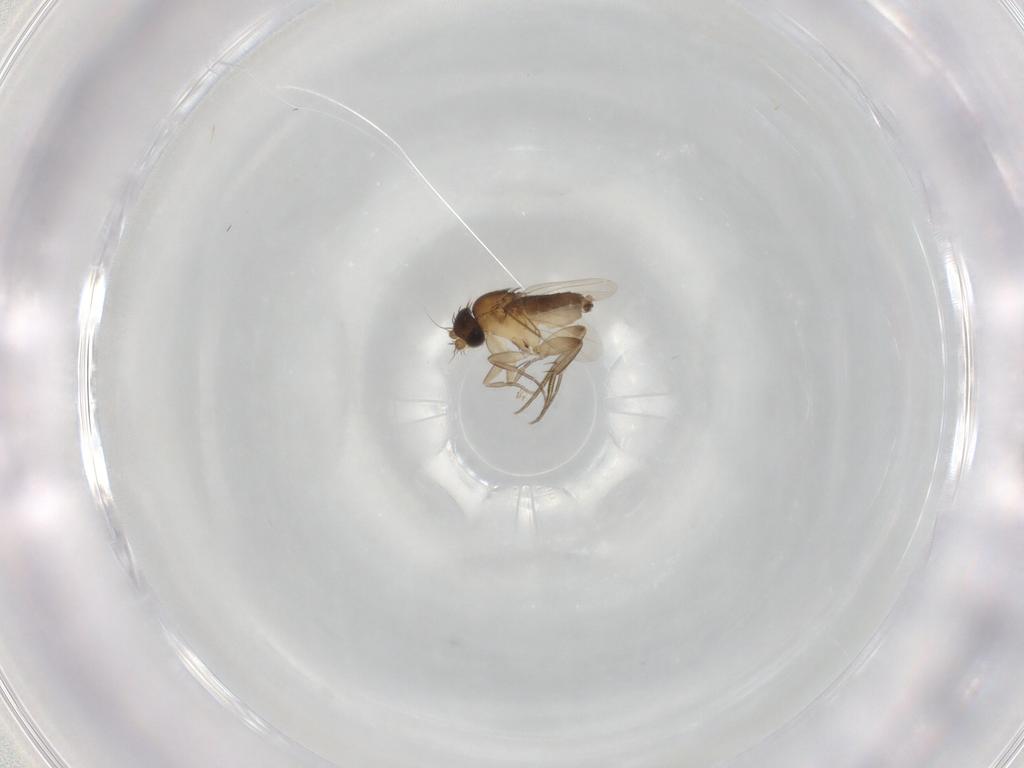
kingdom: Animalia
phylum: Arthropoda
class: Insecta
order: Diptera
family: Phoridae
